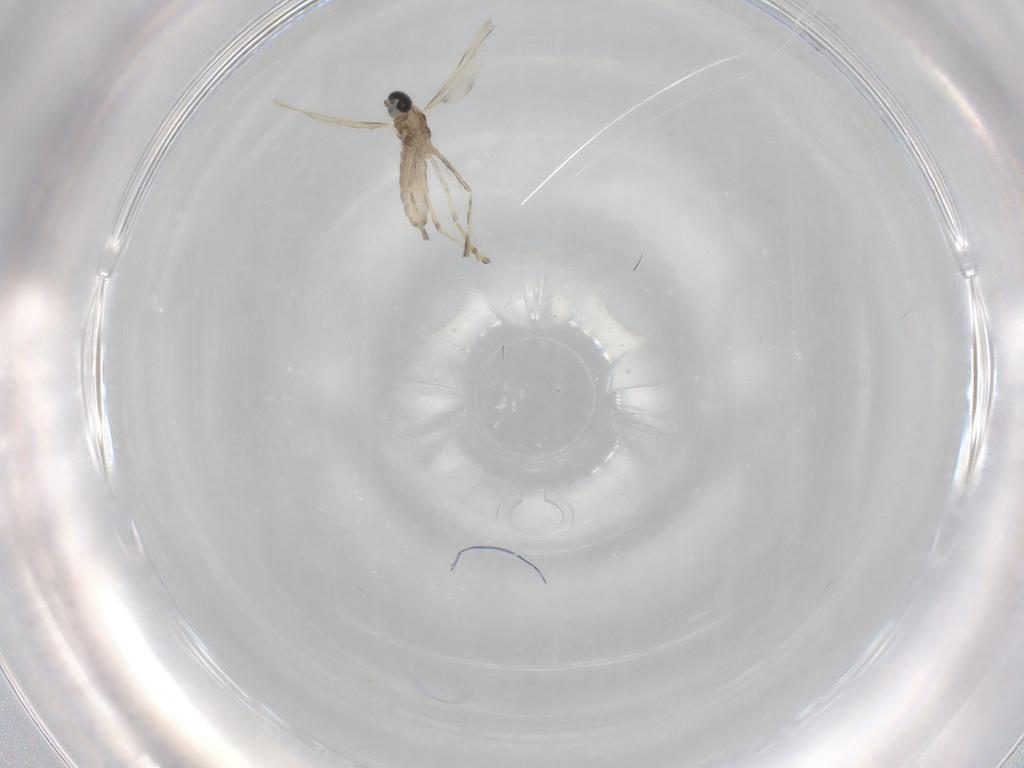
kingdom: Animalia
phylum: Arthropoda
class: Insecta
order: Diptera
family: Cecidomyiidae
